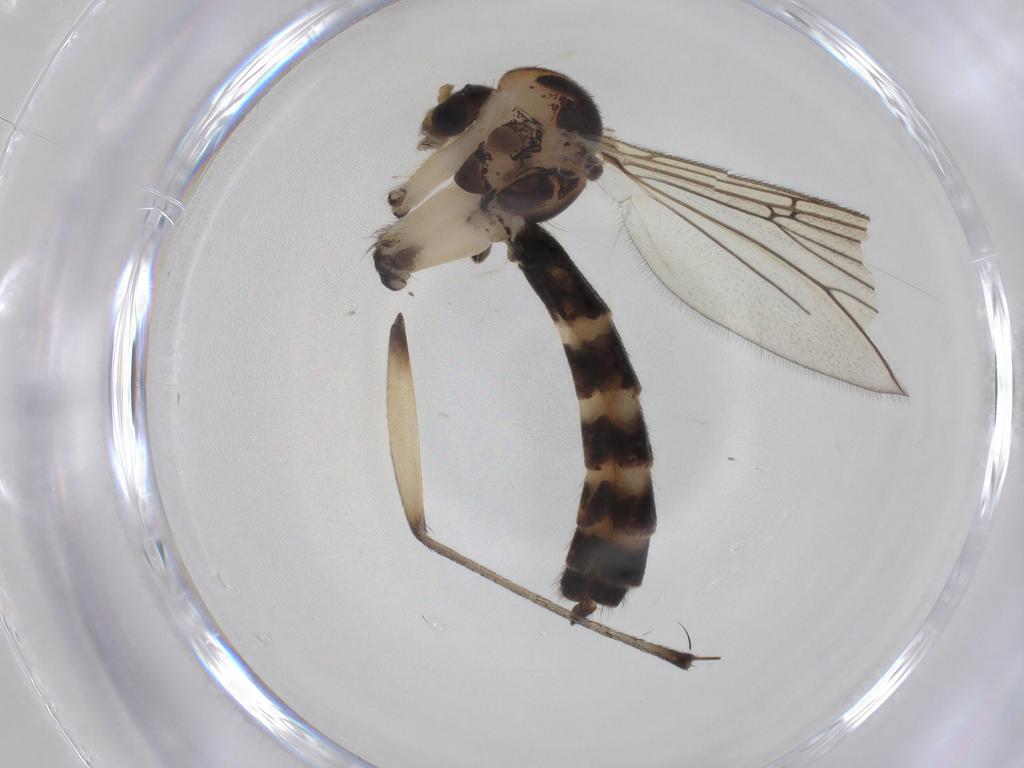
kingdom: Animalia
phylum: Arthropoda
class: Insecta
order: Diptera
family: Mycetophilidae
